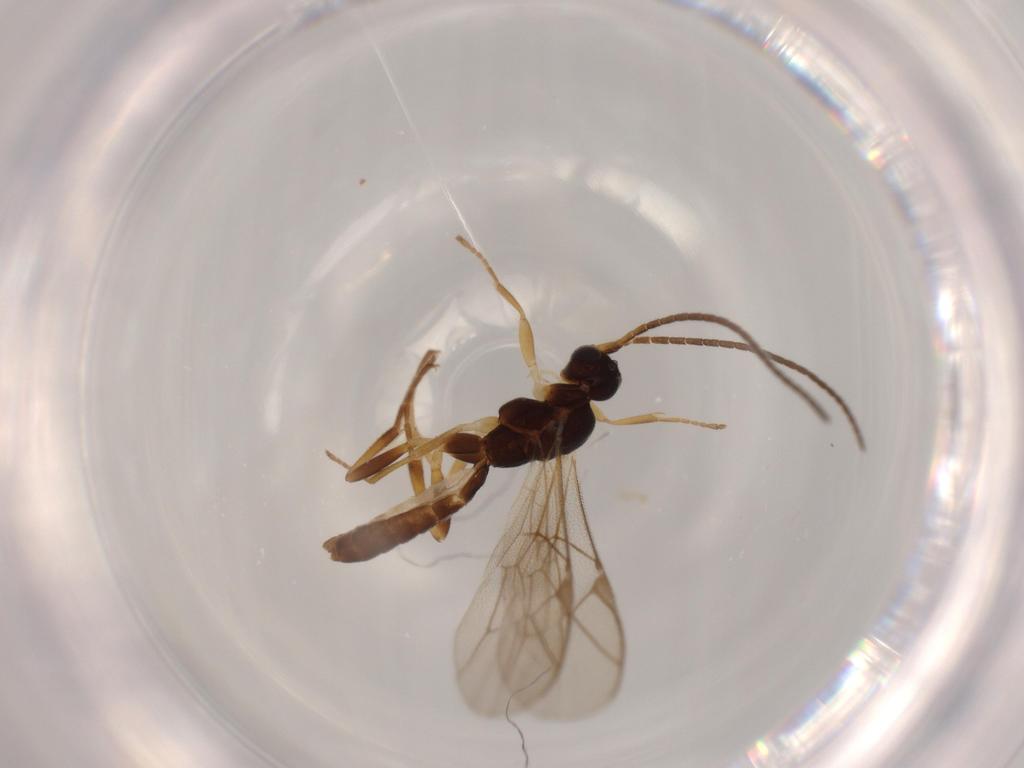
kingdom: Animalia
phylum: Arthropoda
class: Insecta
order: Hymenoptera
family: Ichneumonidae
